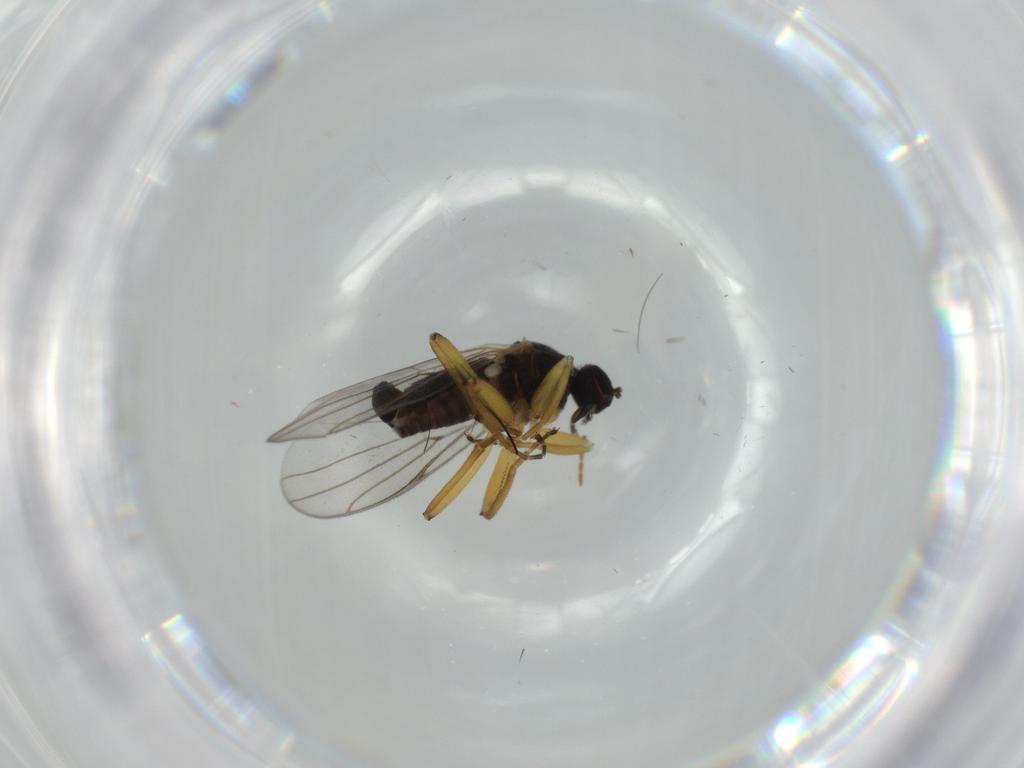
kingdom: Animalia
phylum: Arthropoda
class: Insecta
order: Diptera
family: Hybotidae
